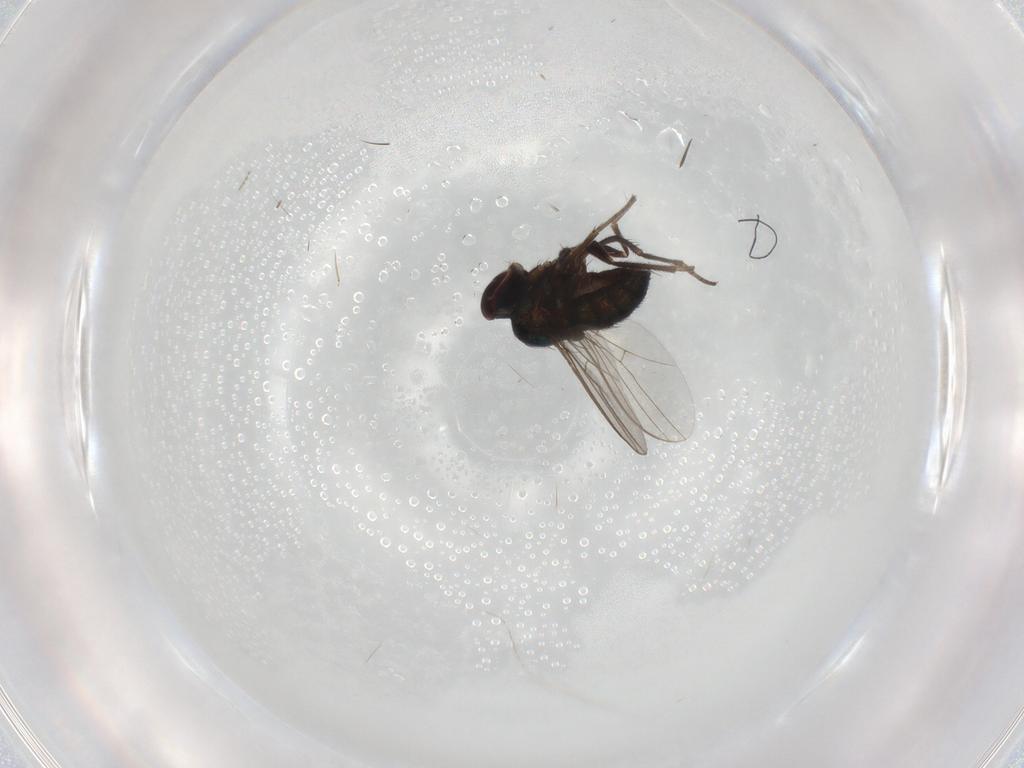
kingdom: Animalia
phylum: Arthropoda
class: Insecta
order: Diptera
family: Dolichopodidae
